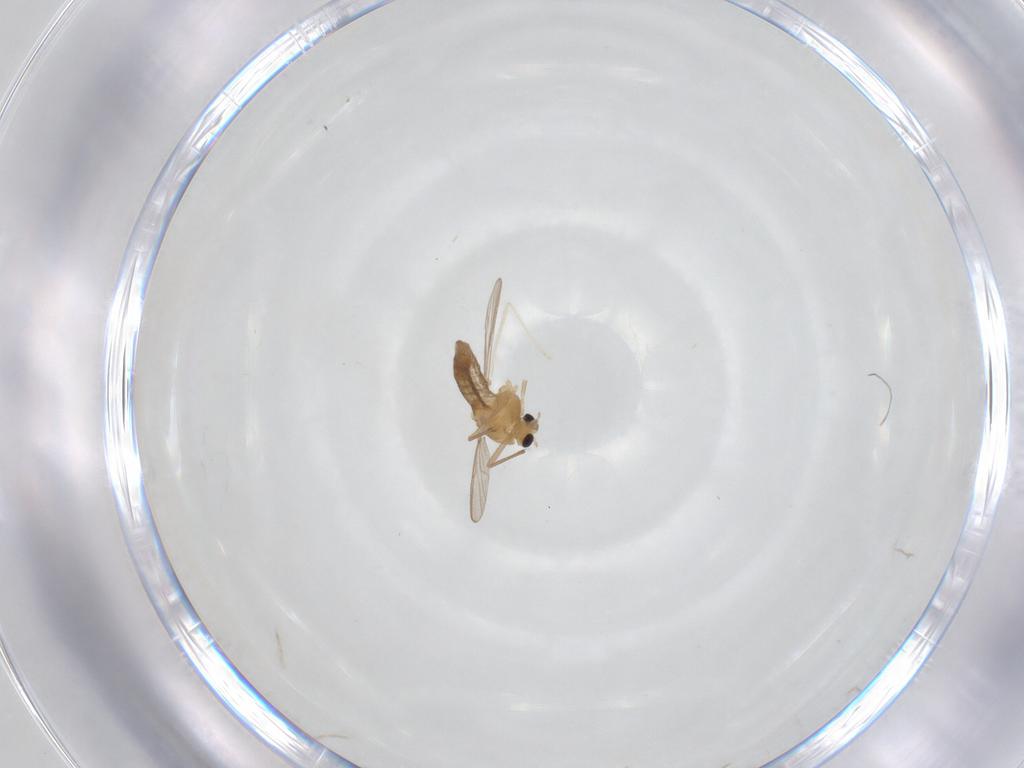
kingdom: Animalia
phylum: Arthropoda
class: Insecta
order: Diptera
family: Chironomidae
